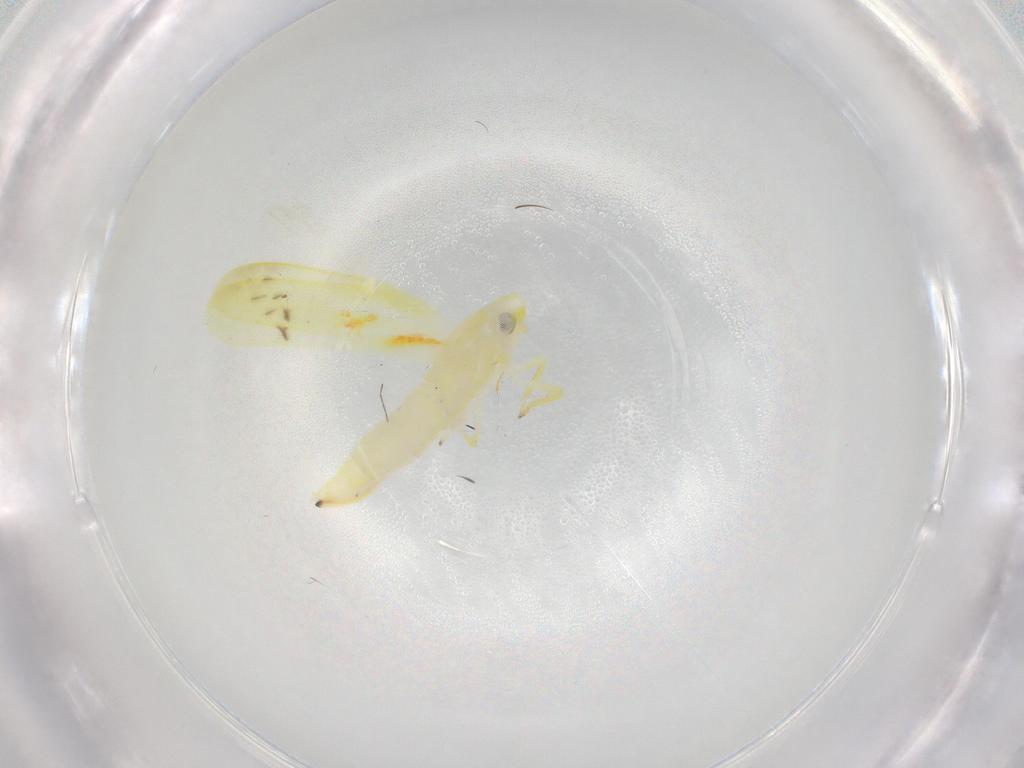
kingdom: Animalia
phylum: Arthropoda
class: Insecta
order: Hemiptera
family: Cicadellidae
